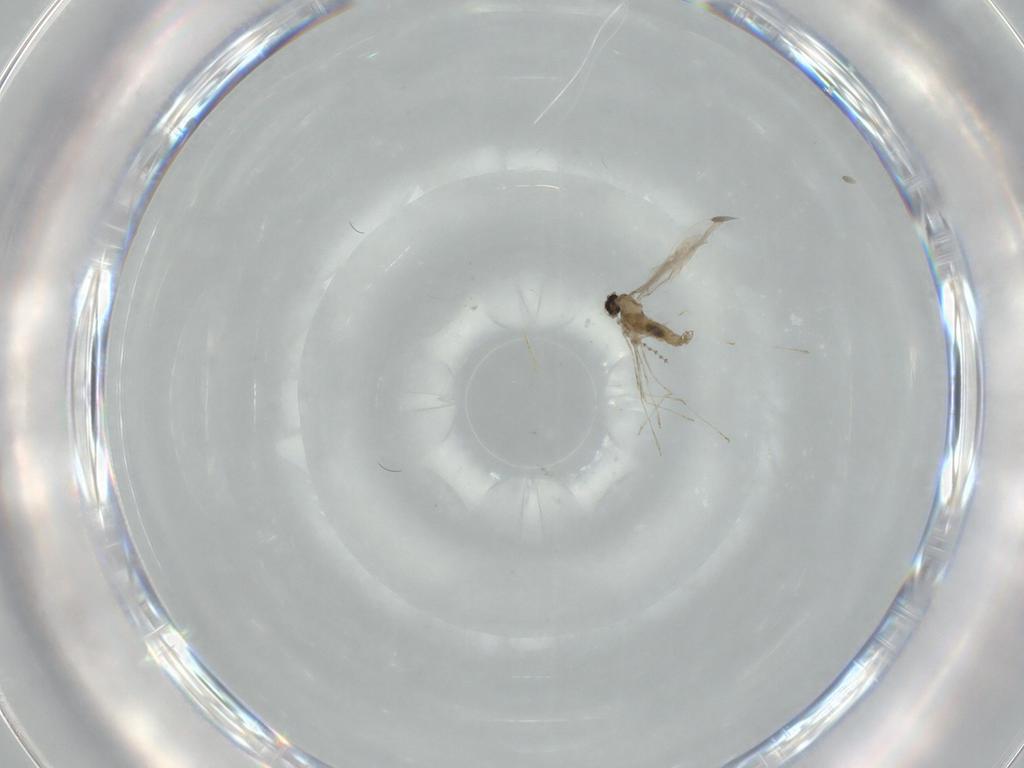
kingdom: Animalia
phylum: Arthropoda
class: Insecta
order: Diptera
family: Cecidomyiidae
